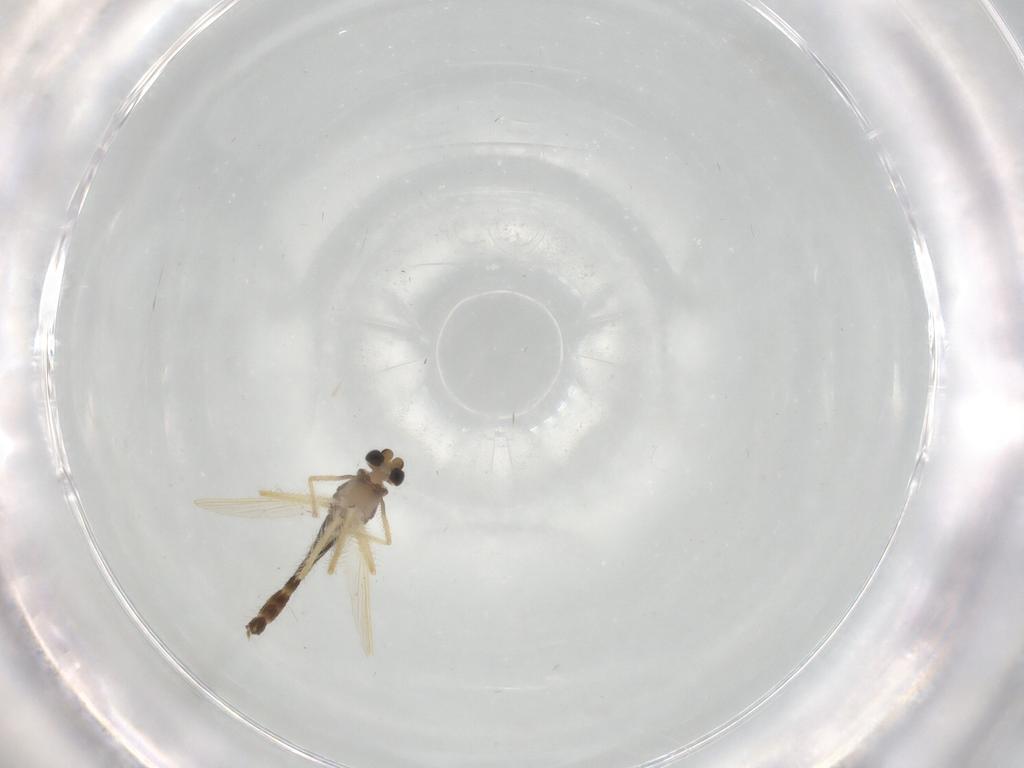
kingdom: Animalia
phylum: Arthropoda
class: Insecta
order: Diptera
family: Chironomidae
